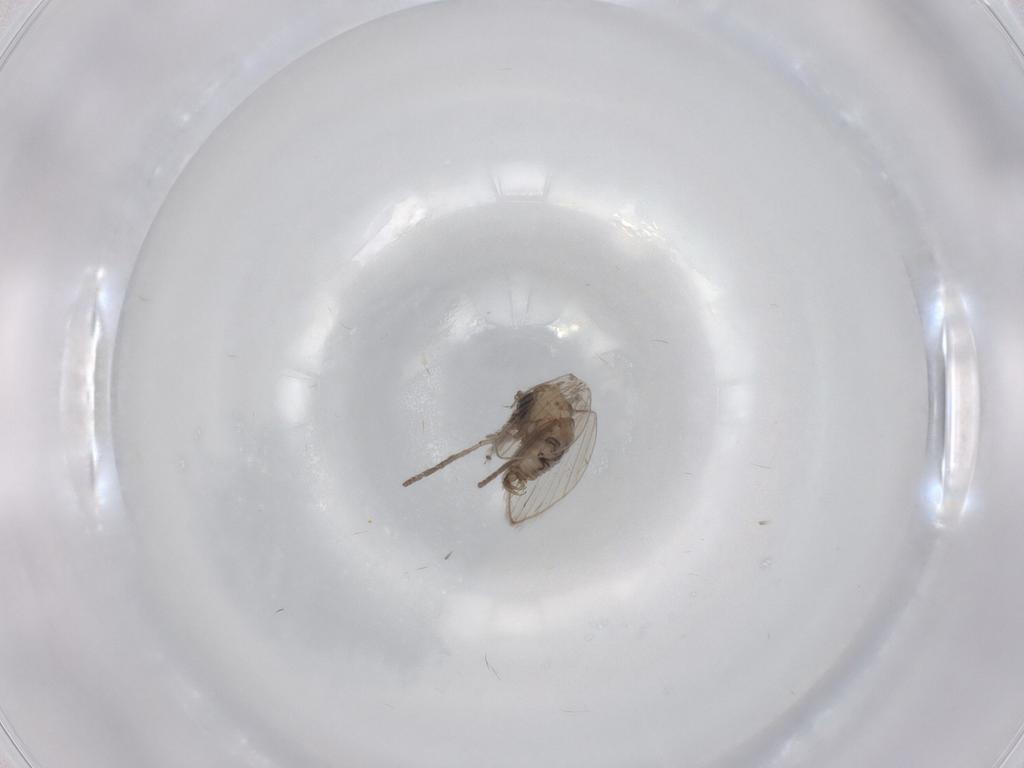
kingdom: Animalia
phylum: Arthropoda
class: Insecta
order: Diptera
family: Psychodidae
